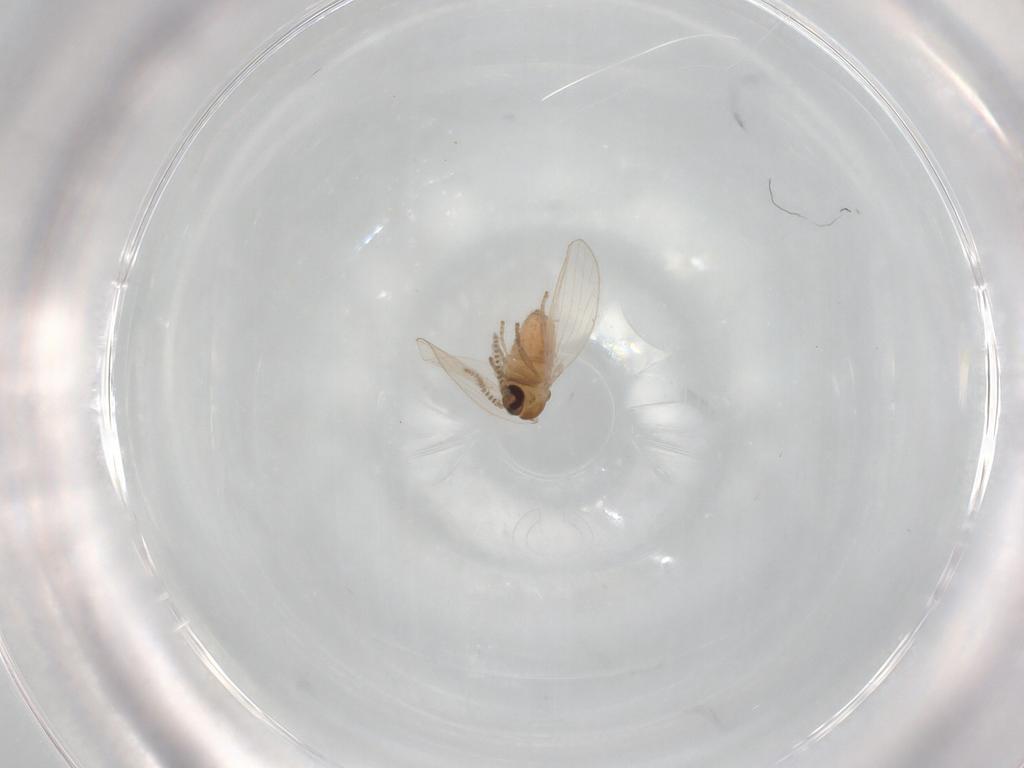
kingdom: Animalia
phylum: Arthropoda
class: Insecta
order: Diptera
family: Psychodidae
